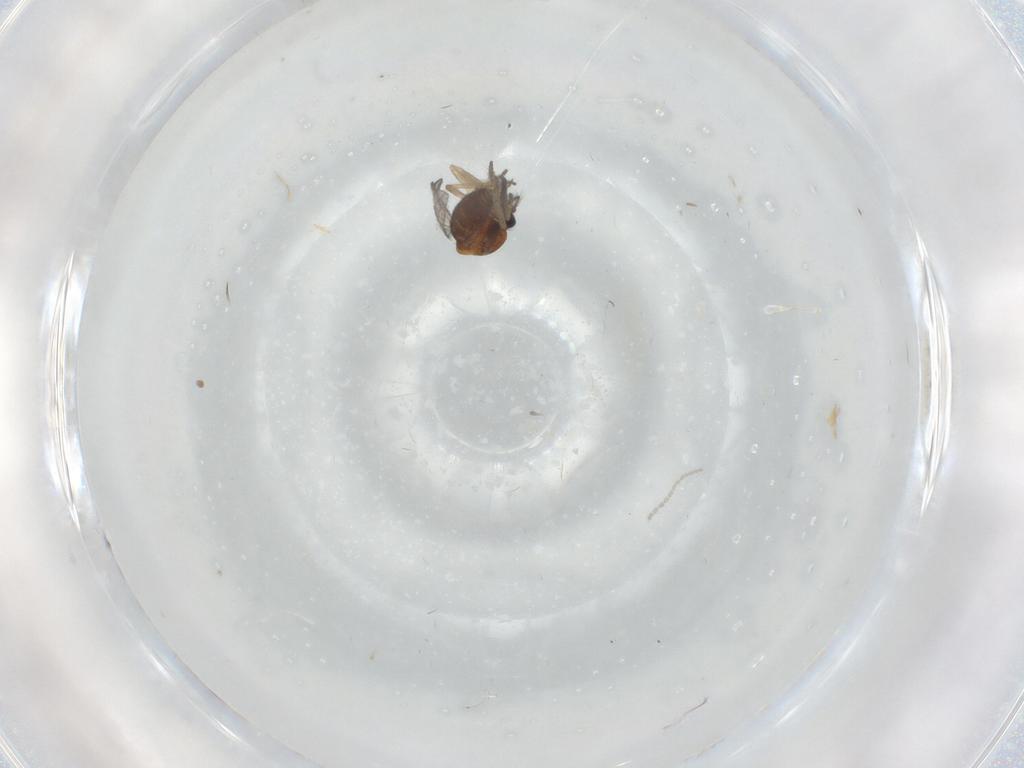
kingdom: Animalia
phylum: Arthropoda
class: Insecta
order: Diptera
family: Ceratopogonidae
